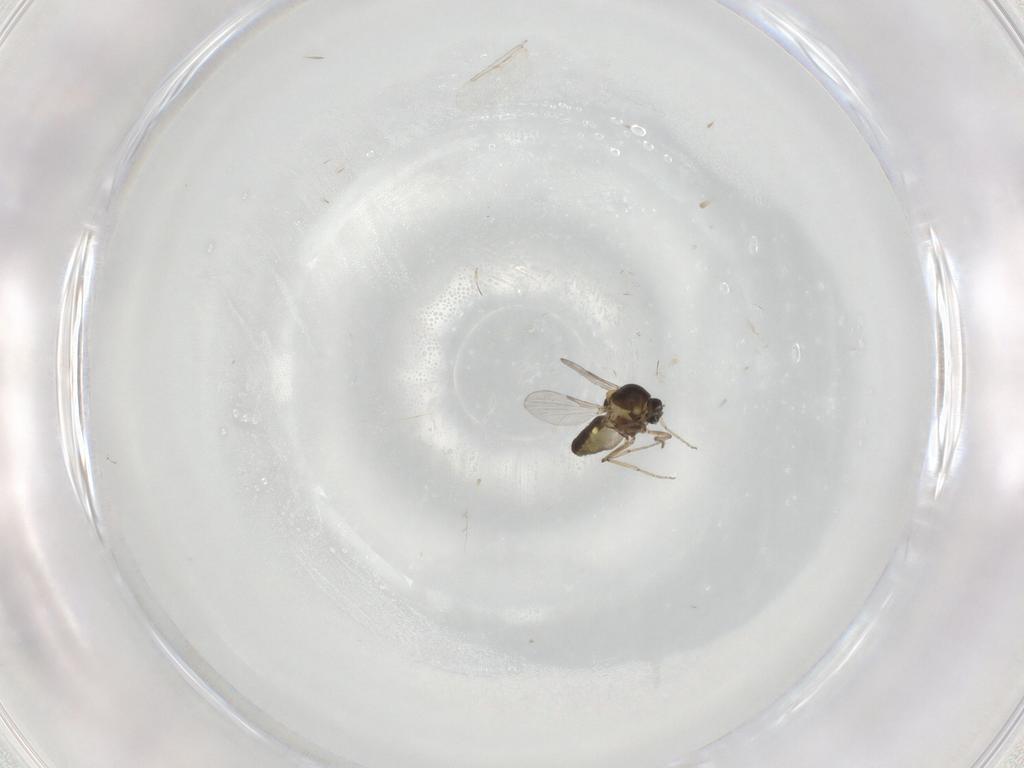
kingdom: Animalia
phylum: Arthropoda
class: Insecta
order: Diptera
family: Ceratopogonidae
